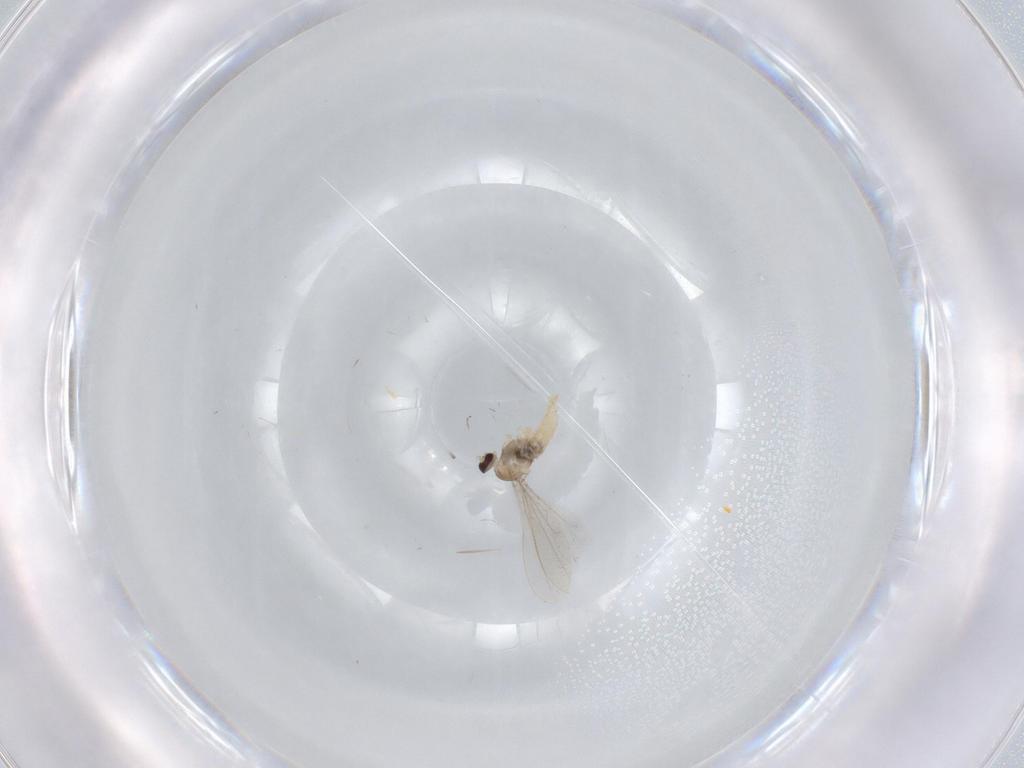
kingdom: Animalia
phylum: Arthropoda
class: Insecta
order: Diptera
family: Cecidomyiidae
